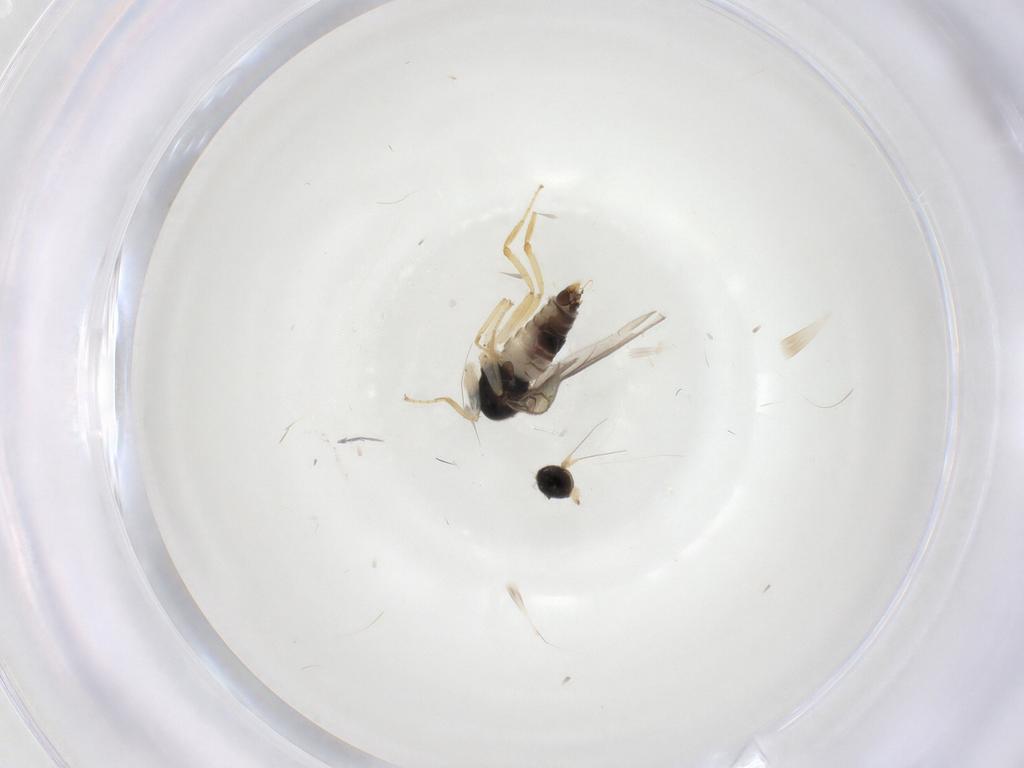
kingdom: Animalia
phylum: Arthropoda
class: Insecta
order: Diptera
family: Hybotidae
